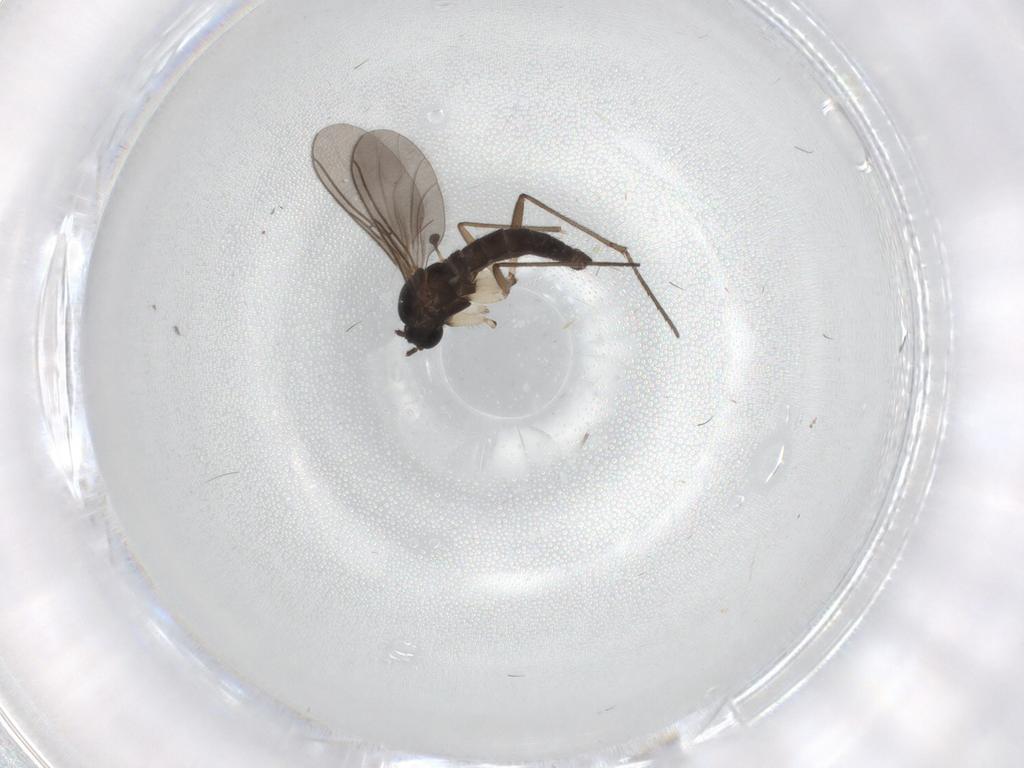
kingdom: Animalia
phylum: Arthropoda
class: Insecta
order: Diptera
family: Sciaridae
